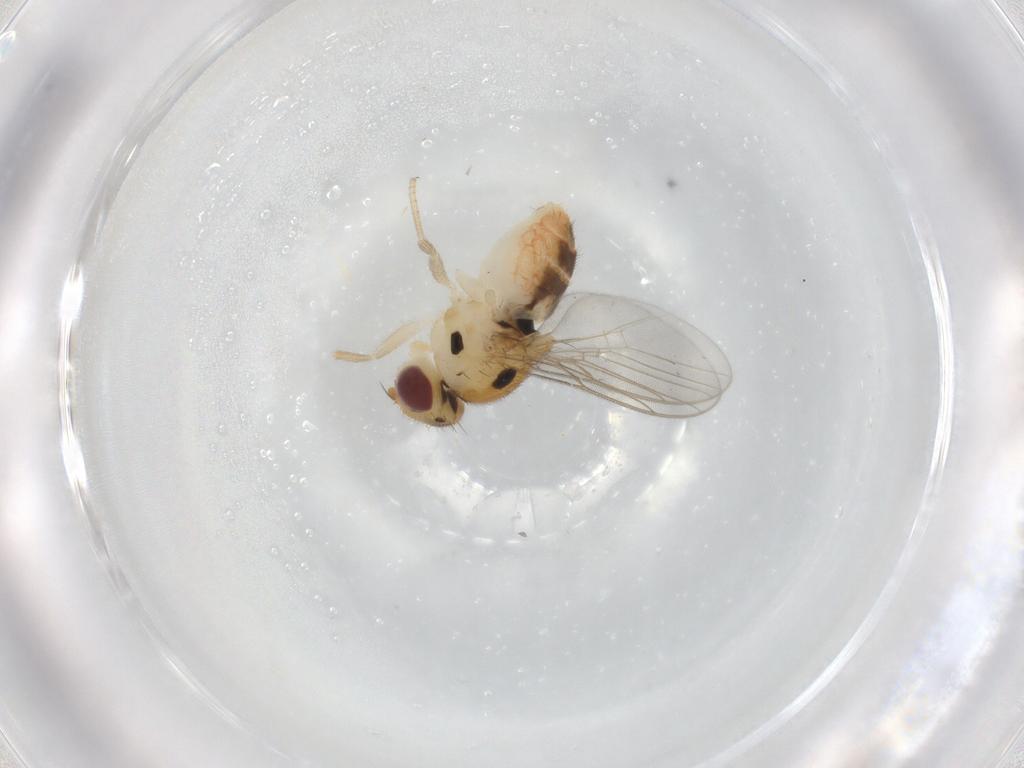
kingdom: Animalia
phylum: Arthropoda
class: Insecta
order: Diptera
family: Chloropidae
